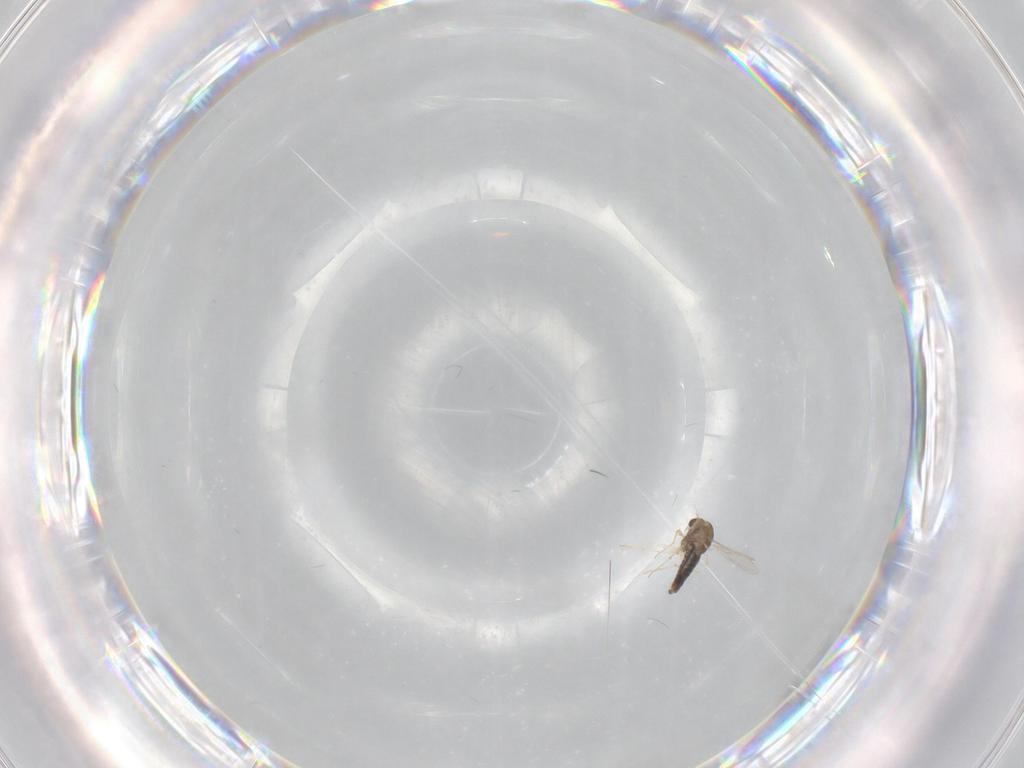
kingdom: Animalia
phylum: Arthropoda
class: Insecta
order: Diptera
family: Chironomidae
